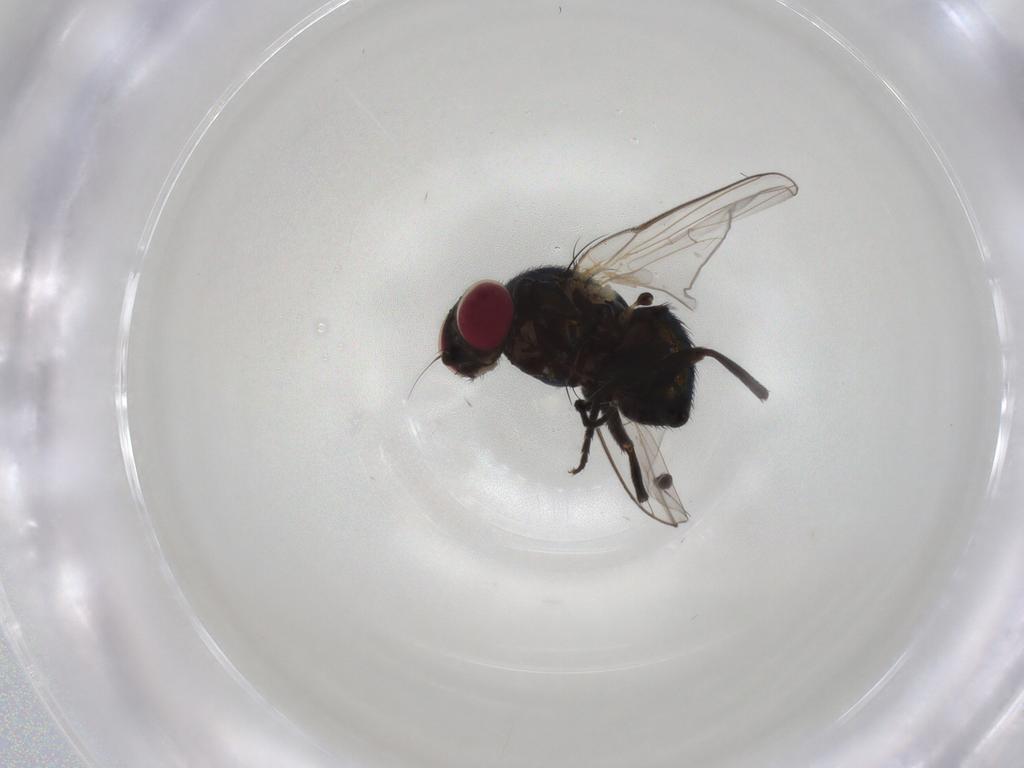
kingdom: Animalia
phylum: Arthropoda
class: Insecta
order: Diptera
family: Agromyzidae
